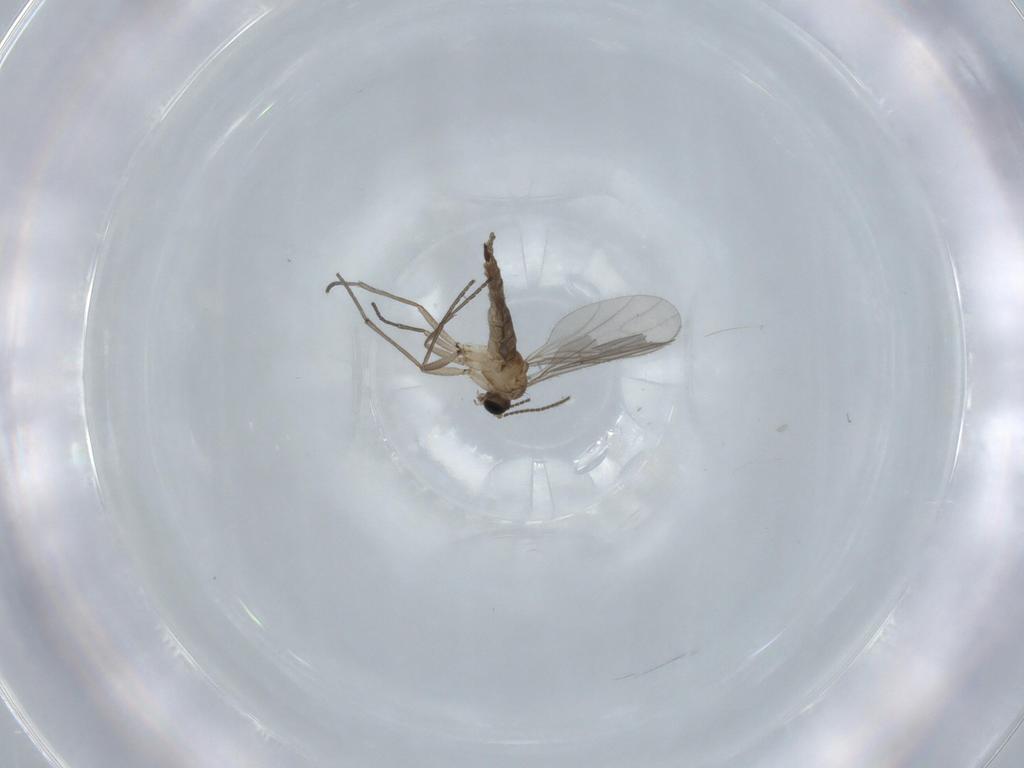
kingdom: Animalia
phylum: Arthropoda
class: Insecta
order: Diptera
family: Sciaridae
